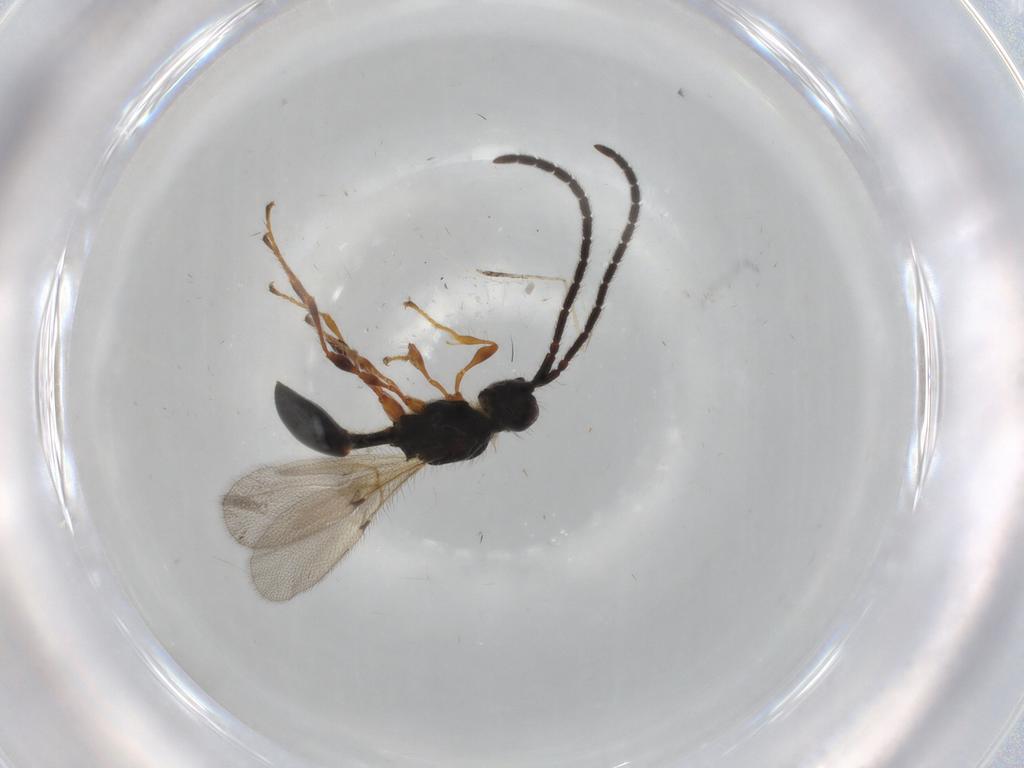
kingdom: Animalia
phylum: Arthropoda
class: Insecta
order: Hymenoptera
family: Diapriidae
